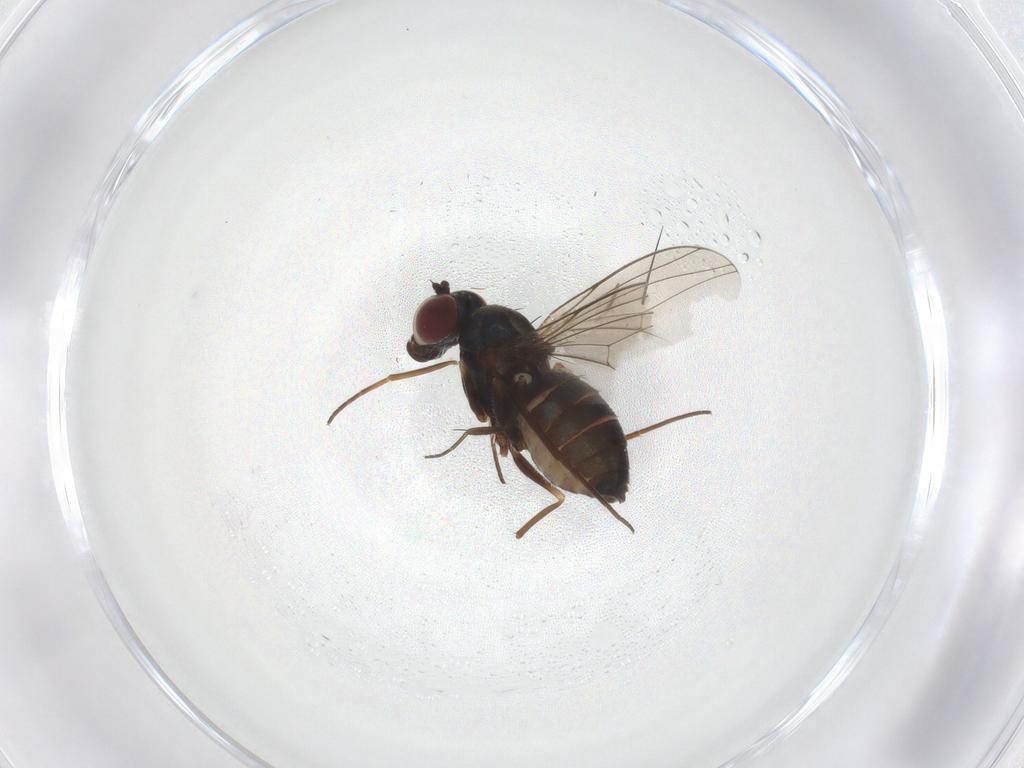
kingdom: Animalia
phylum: Arthropoda
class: Insecta
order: Diptera
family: Dolichopodidae
